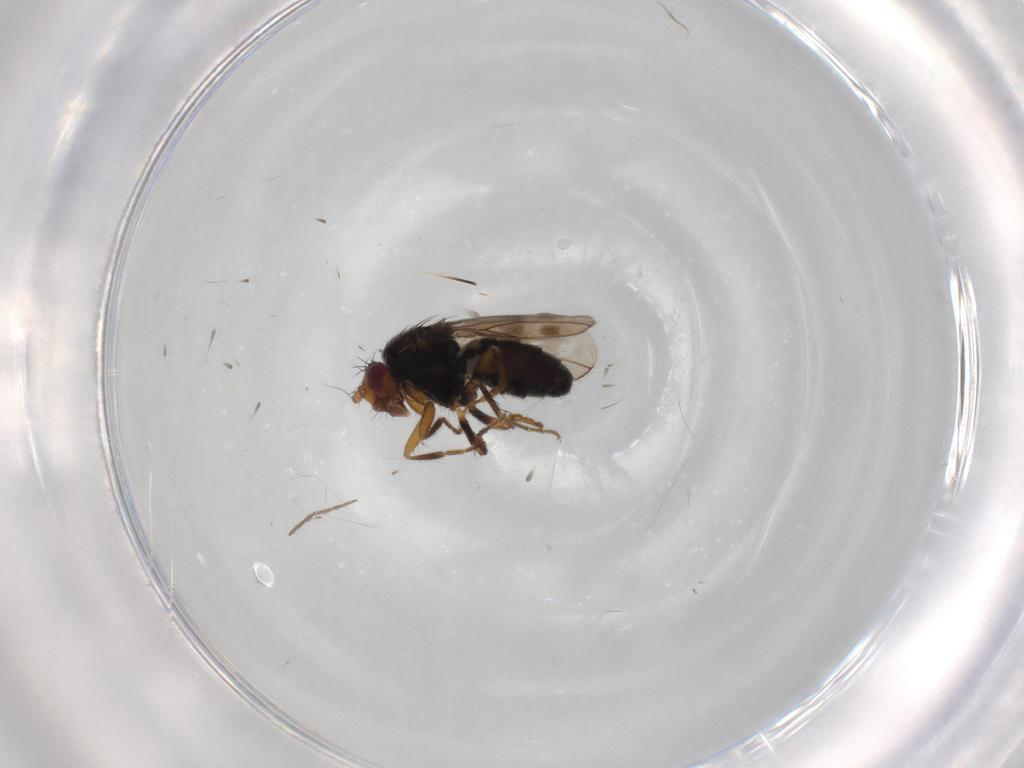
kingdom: Animalia
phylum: Arthropoda
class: Insecta
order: Diptera
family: Sphaeroceridae
